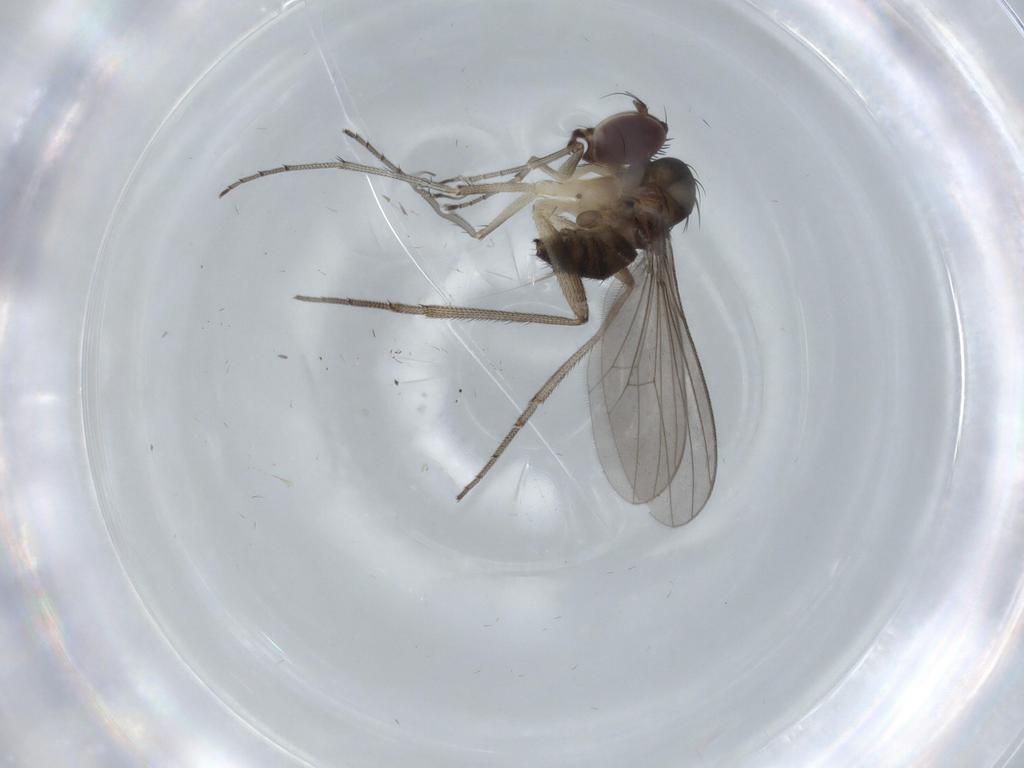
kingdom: Animalia
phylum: Arthropoda
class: Insecta
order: Diptera
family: Dolichopodidae
